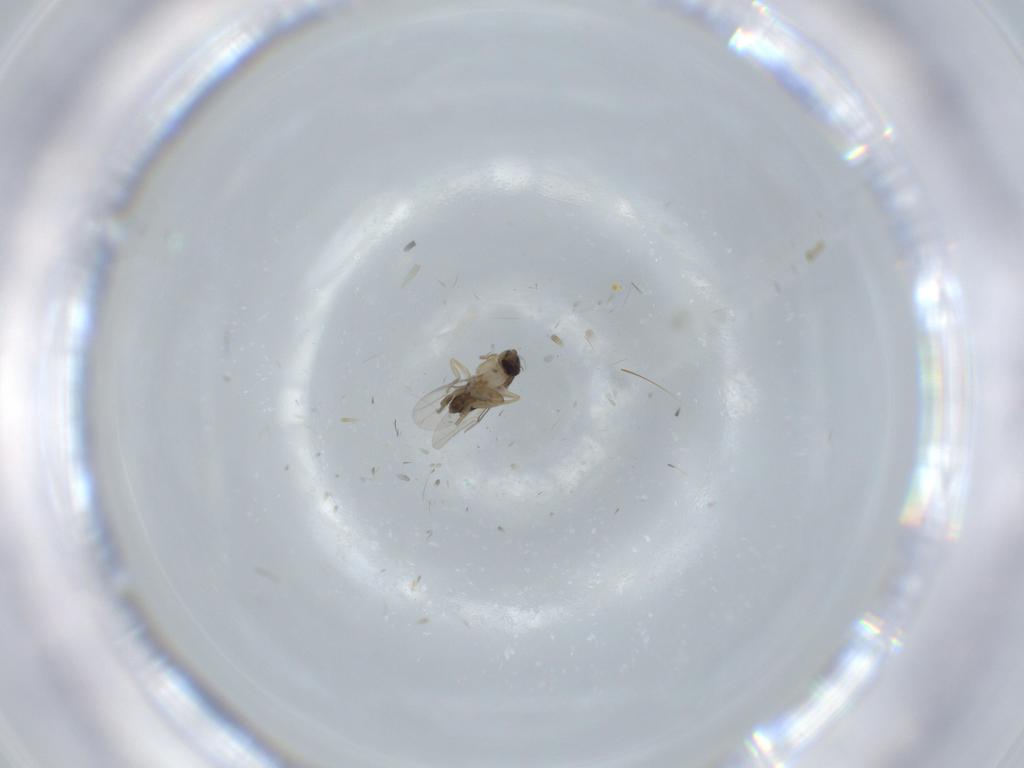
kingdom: Animalia
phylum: Arthropoda
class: Insecta
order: Diptera
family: Phoridae
